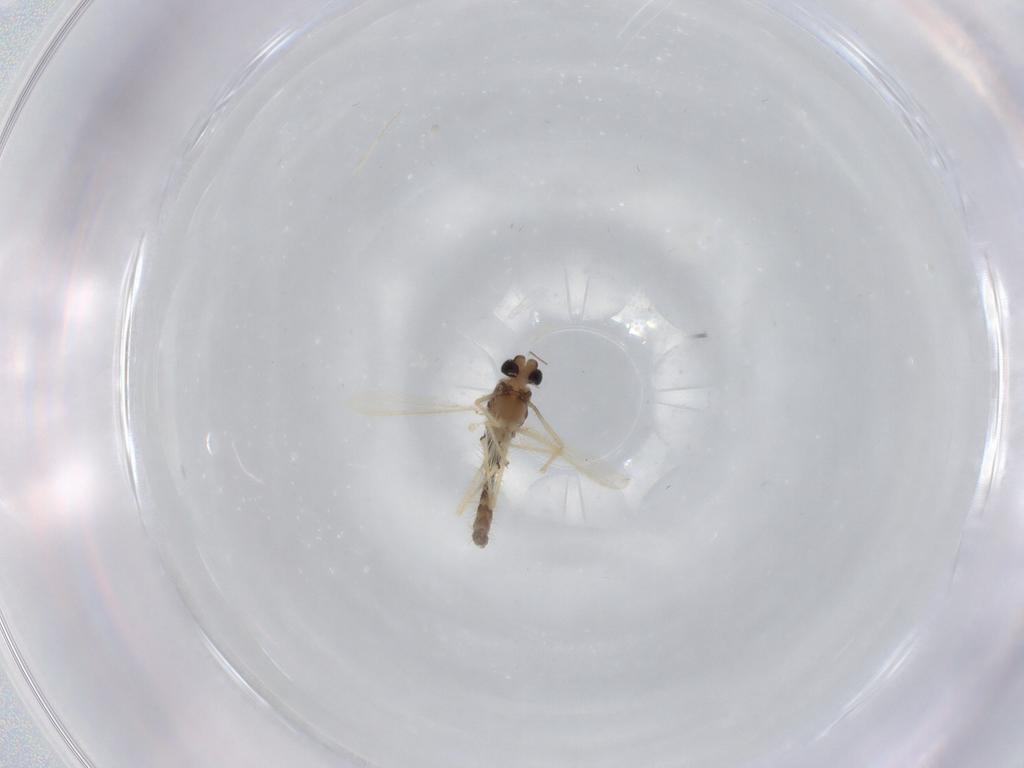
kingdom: Animalia
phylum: Arthropoda
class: Insecta
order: Diptera
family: Chironomidae
